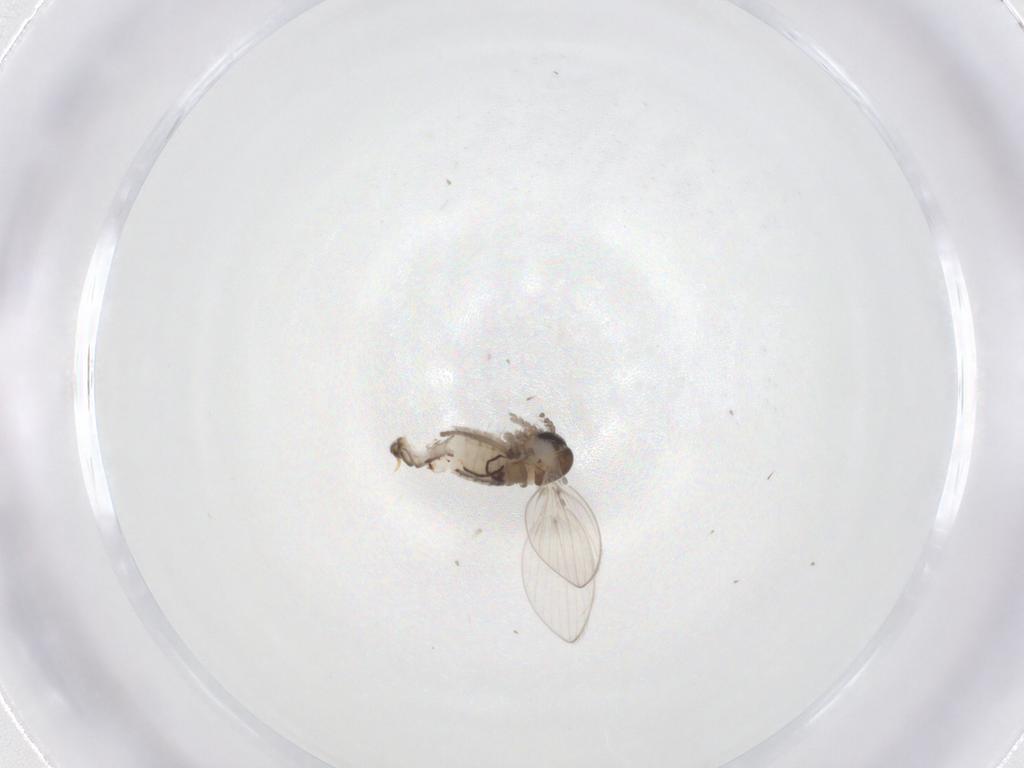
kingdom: Animalia
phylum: Arthropoda
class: Insecta
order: Diptera
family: Psychodidae
